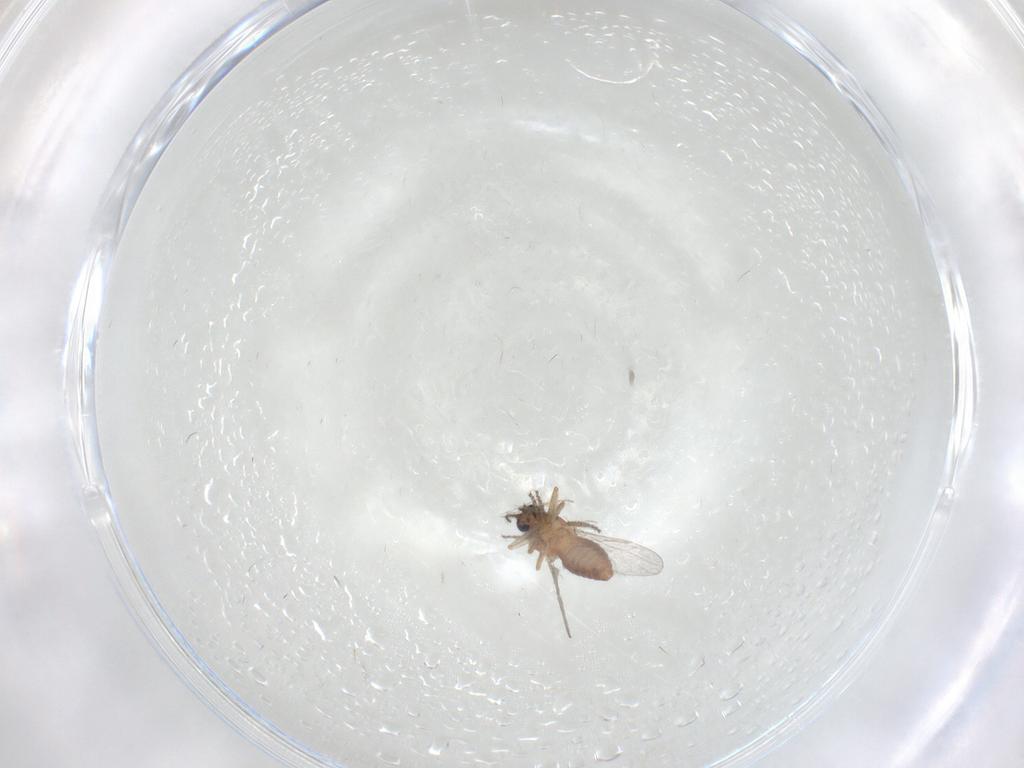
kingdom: Animalia
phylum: Arthropoda
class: Insecta
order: Diptera
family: Ceratopogonidae
